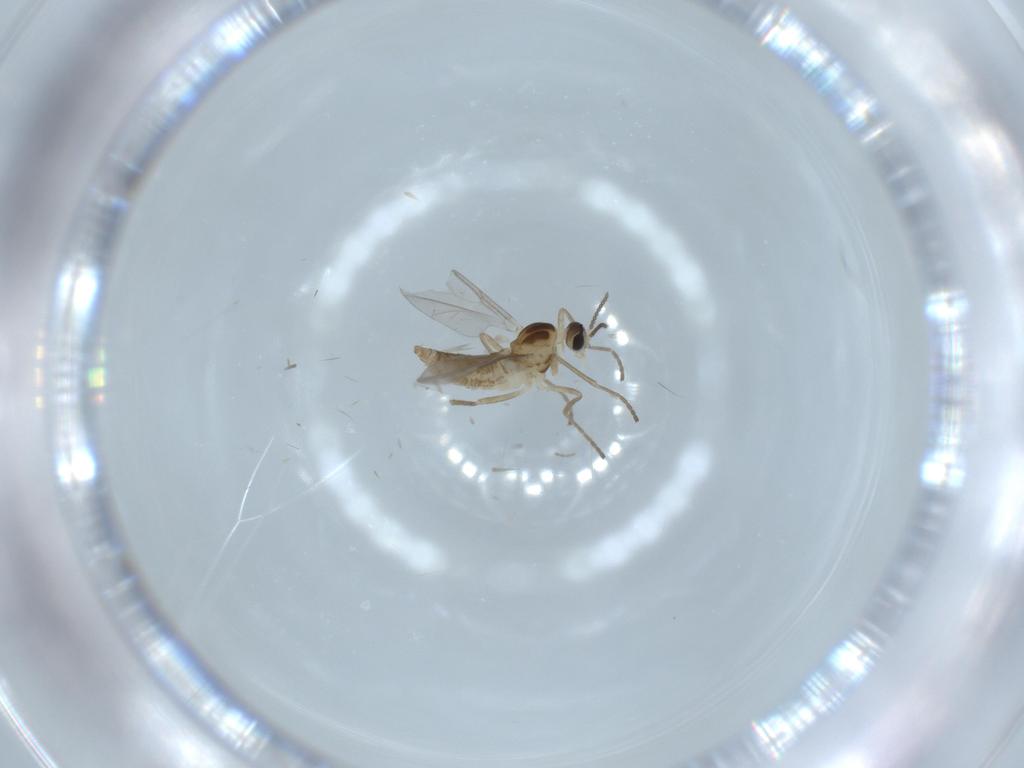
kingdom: Animalia
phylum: Arthropoda
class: Insecta
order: Diptera
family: Cecidomyiidae
